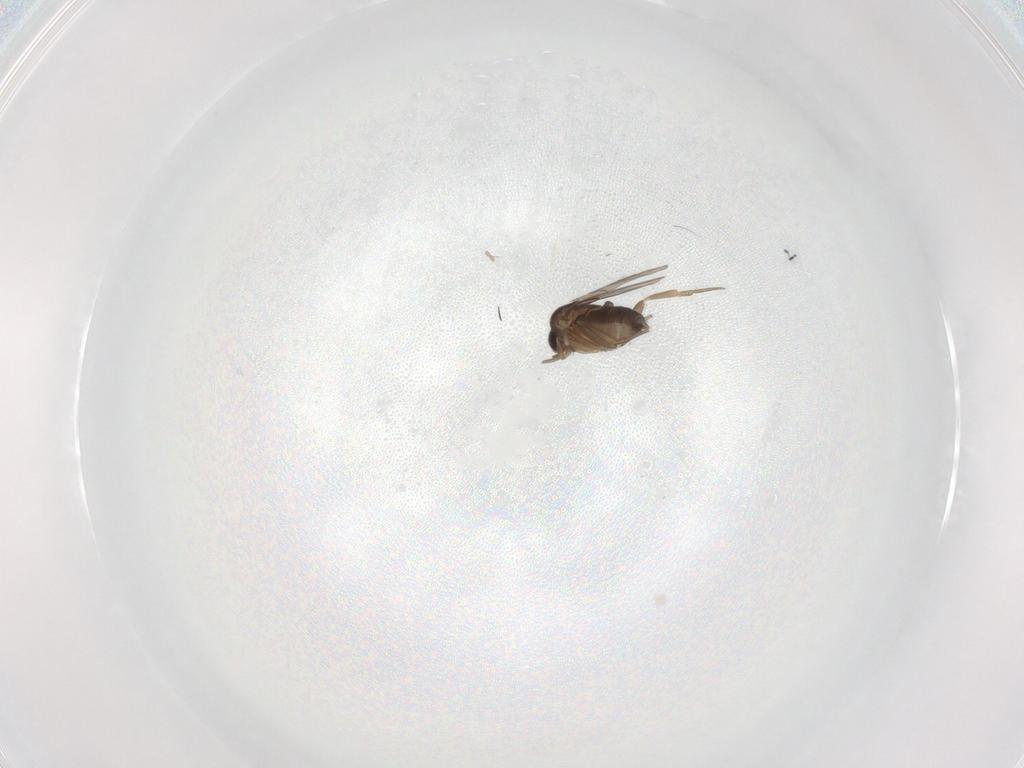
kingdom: Animalia
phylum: Arthropoda
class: Insecta
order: Diptera
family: Phoridae
